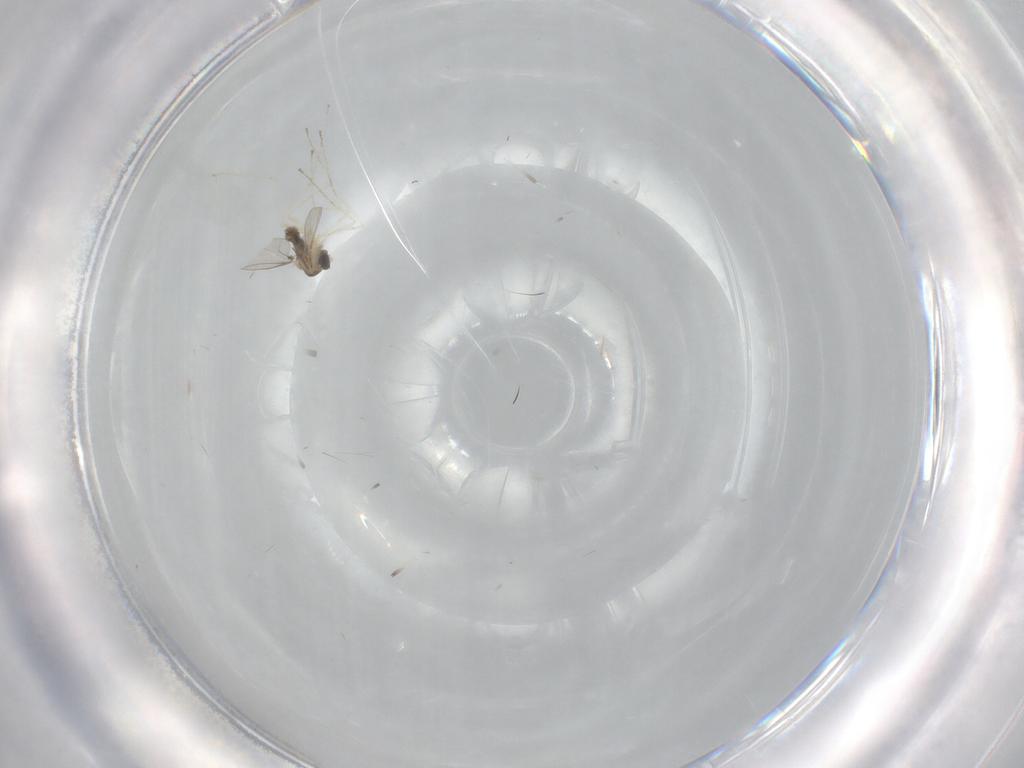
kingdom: Animalia
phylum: Arthropoda
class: Insecta
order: Diptera
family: Cecidomyiidae
